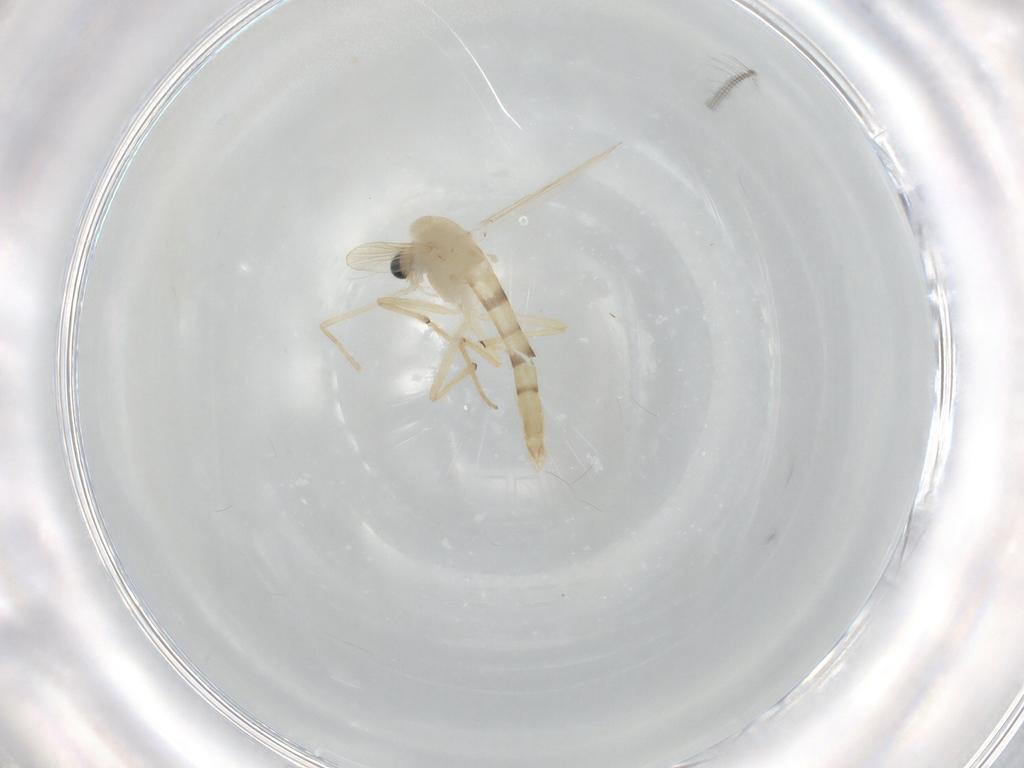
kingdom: Animalia
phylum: Arthropoda
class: Insecta
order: Diptera
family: Chironomidae
